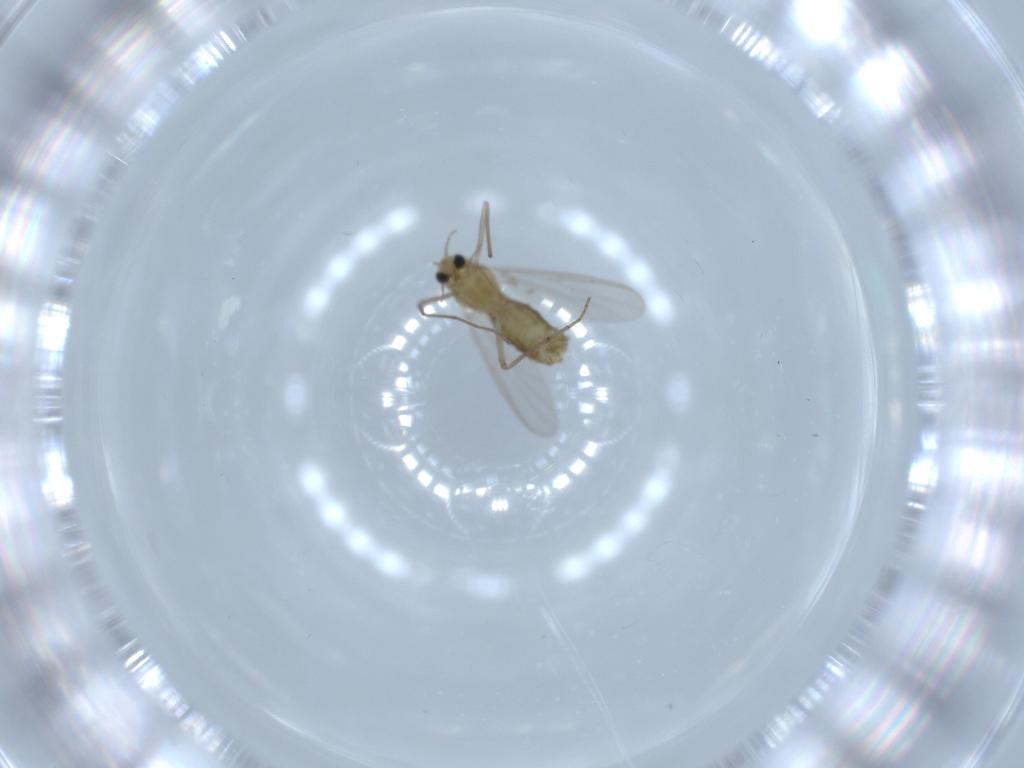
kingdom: Animalia
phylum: Arthropoda
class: Insecta
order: Diptera
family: Chironomidae
